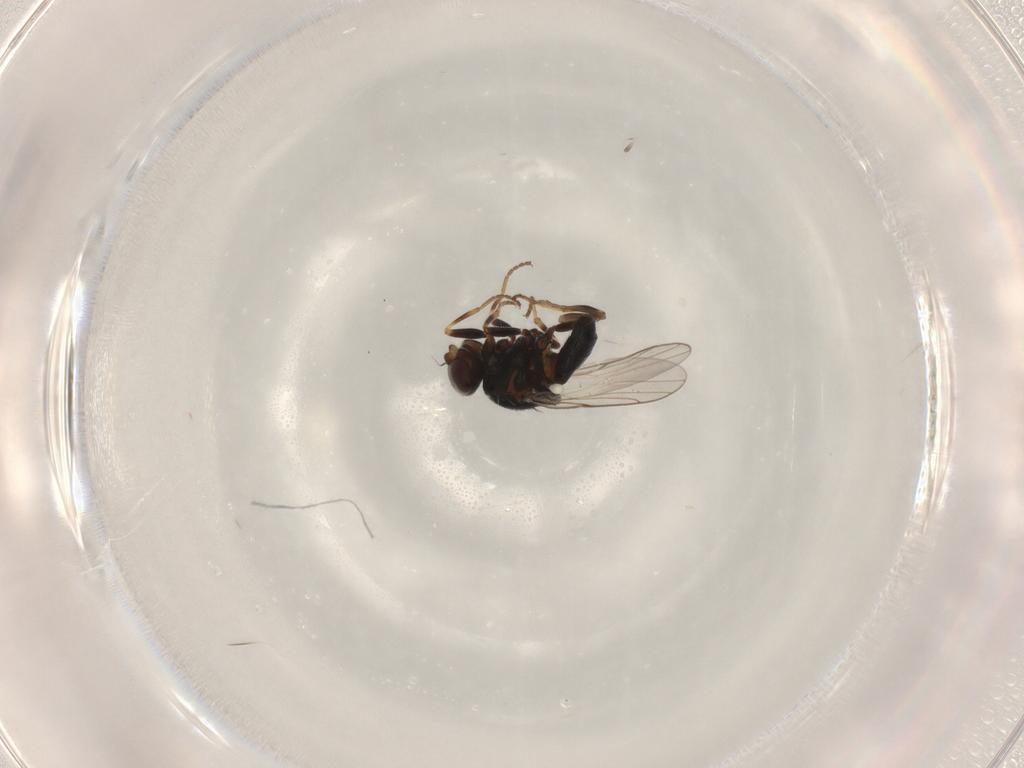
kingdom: Animalia
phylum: Arthropoda
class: Insecta
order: Diptera
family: Chloropidae
